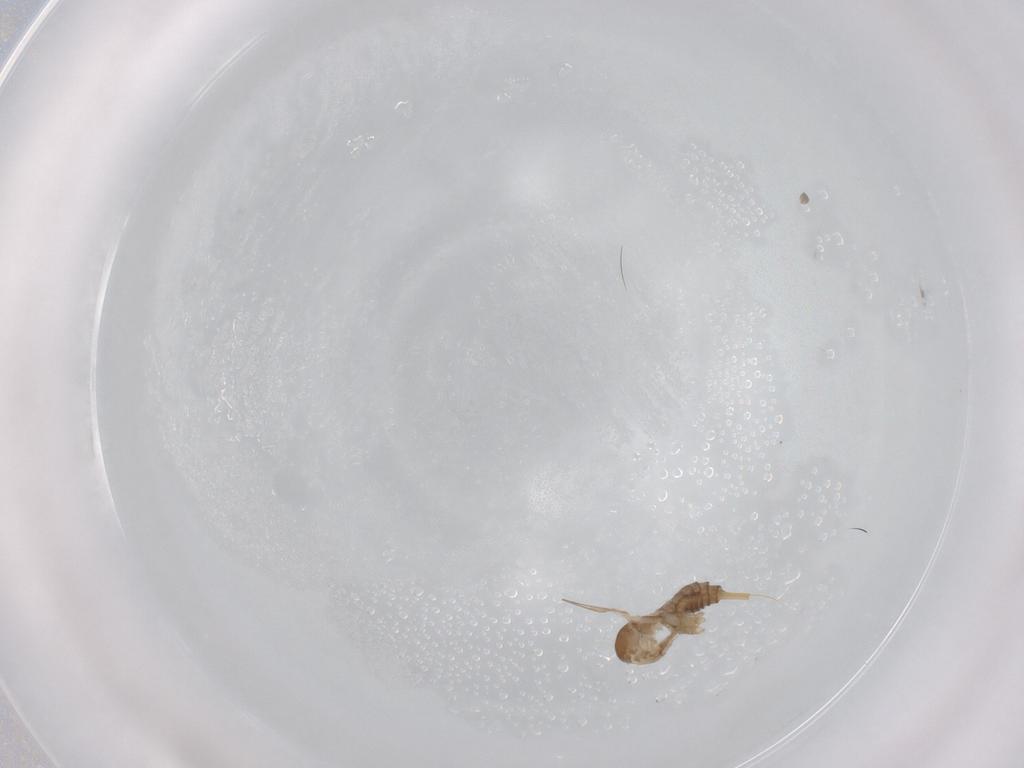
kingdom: Animalia
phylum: Arthropoda
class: Insecta
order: Diptera
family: Cecidomyiidae
